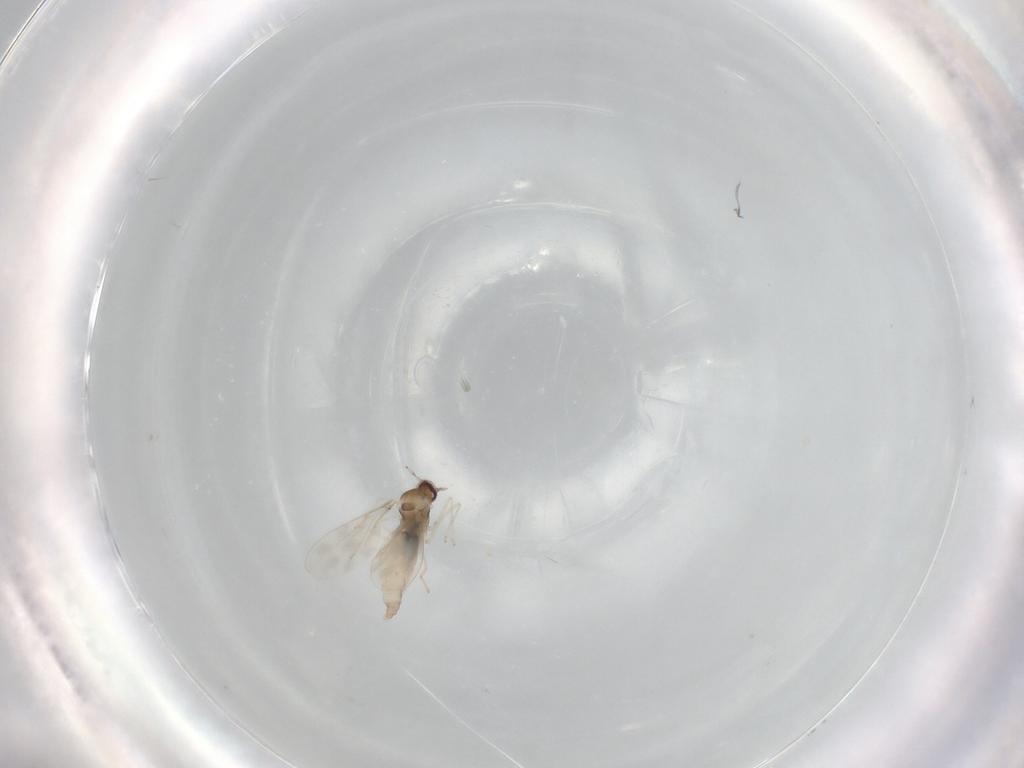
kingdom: Animalia
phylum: Arthropoda
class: Insecta
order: Diptera
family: Cecidomyiidae
